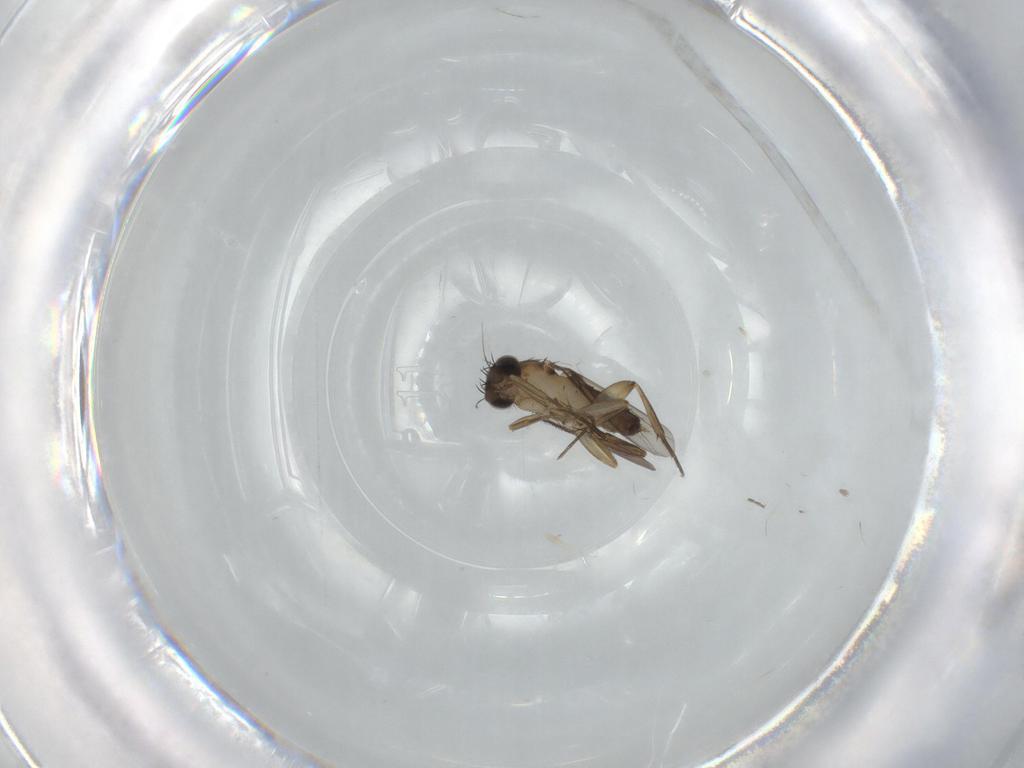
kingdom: Animalia
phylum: Arthropoda
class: Insecta
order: Diptera
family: Phoridae
